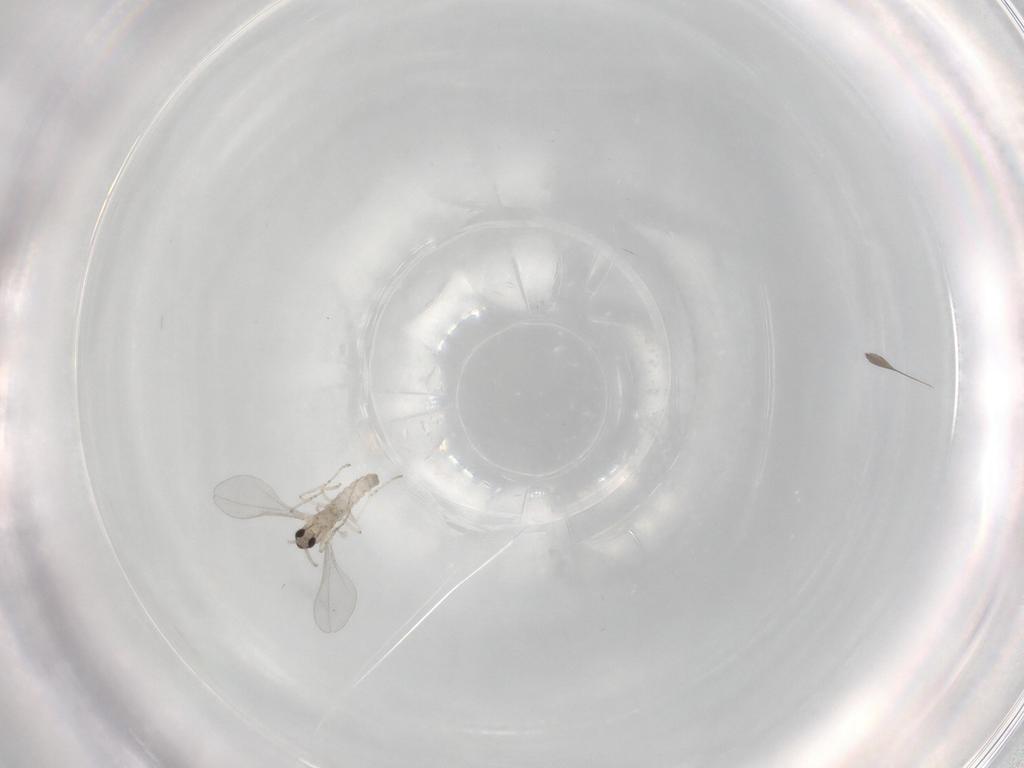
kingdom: Animalia
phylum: Arthropoda
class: Insecta
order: Diptera
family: Phoridae
